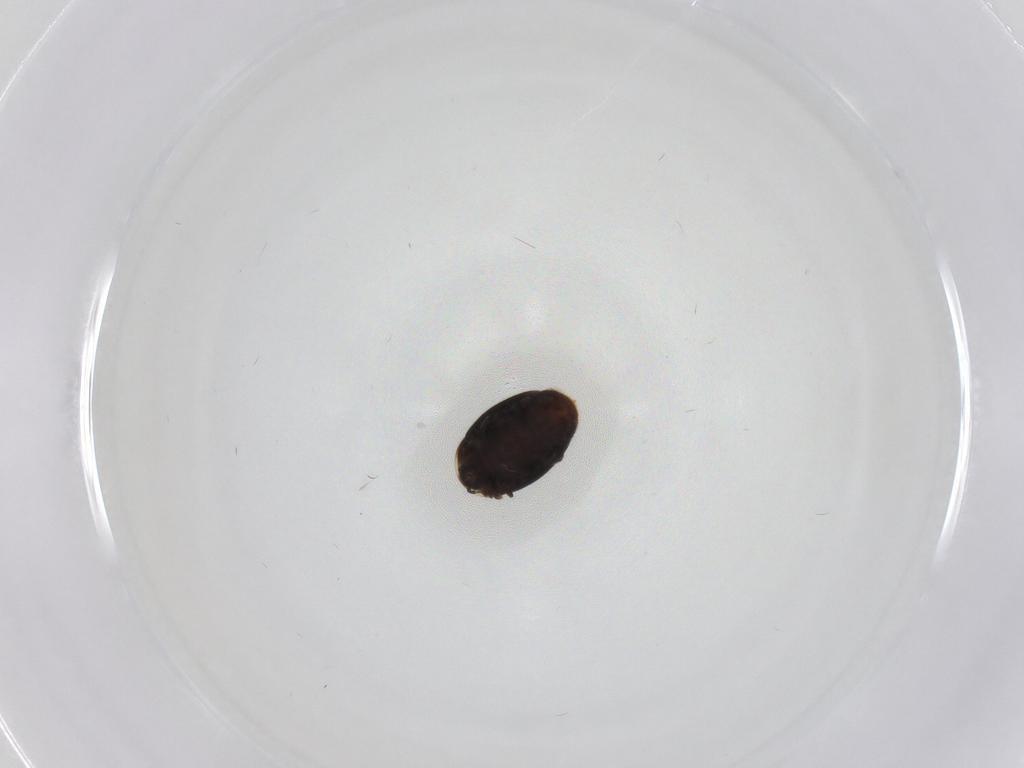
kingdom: Animalia
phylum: Arthropoda
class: Insecta
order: Coleoptera
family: Corylophidae
